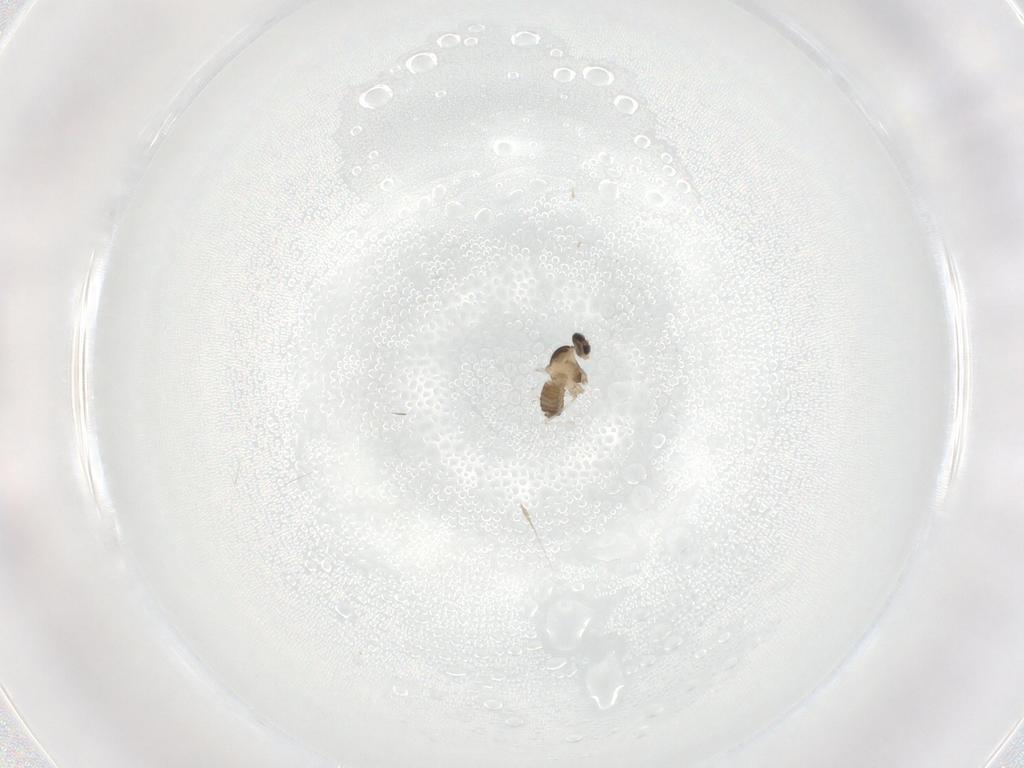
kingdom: Animalia
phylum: Arthropoda
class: Insecta
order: Diptera
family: Cecidomyiidae
